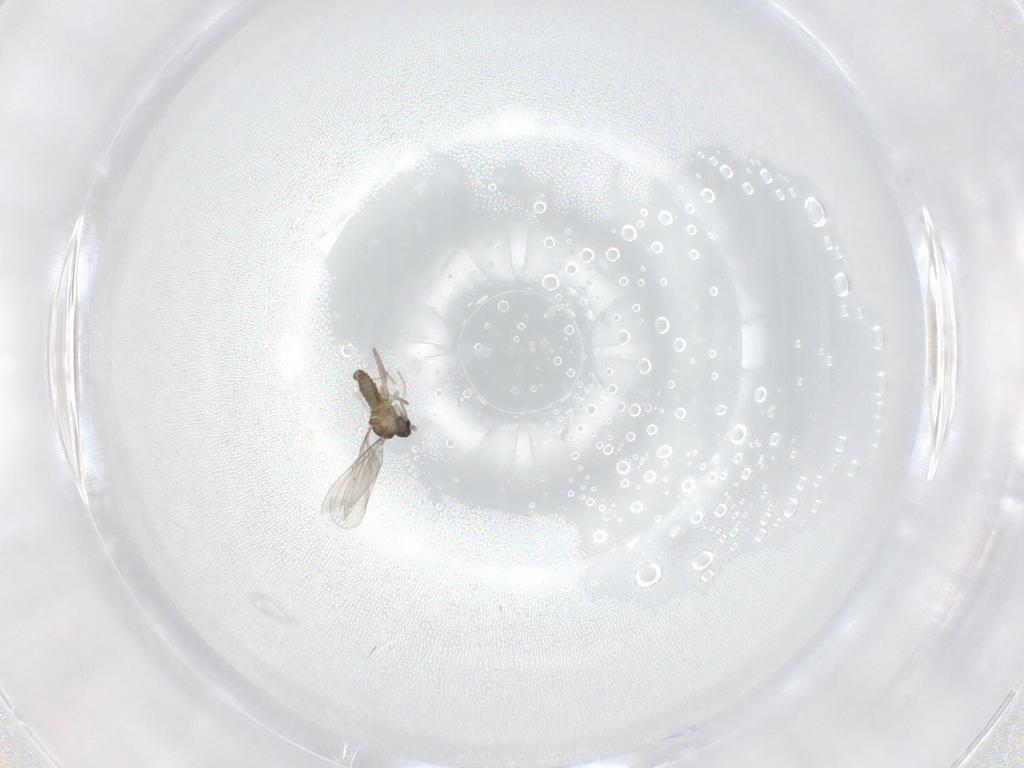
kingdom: Animalia
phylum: Arthropoda
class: Insecta
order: Diptera
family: Cecidomyiidae
